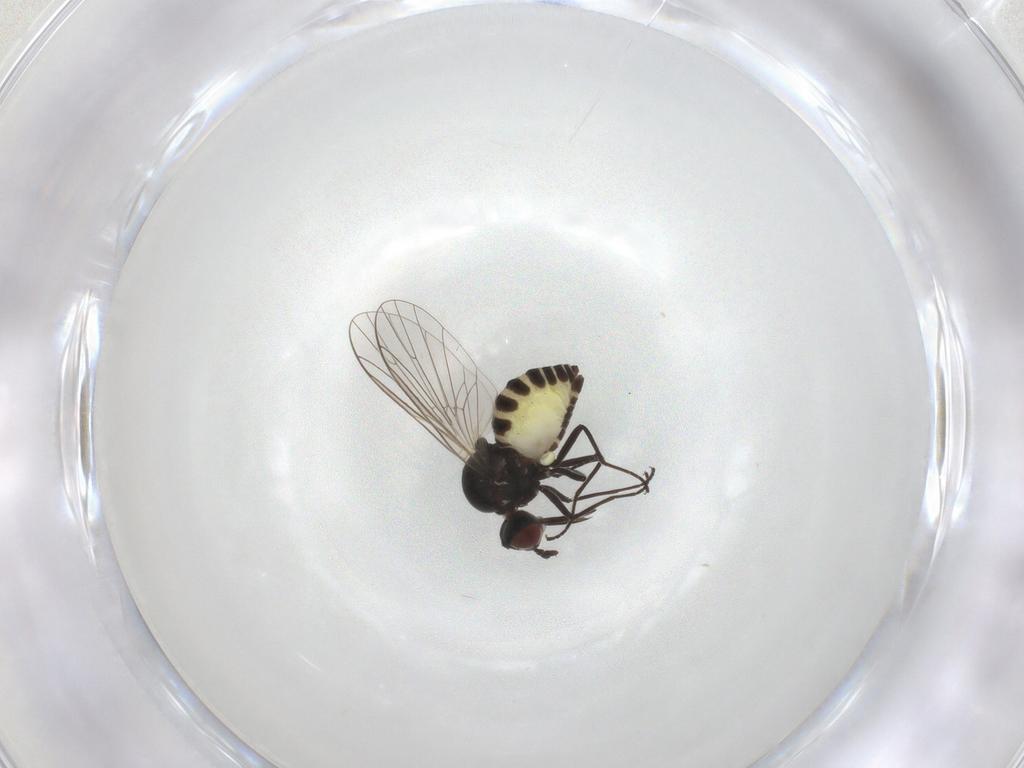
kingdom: Animalia
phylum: Arthropoda
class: Insecta
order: Diptera
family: Bombyliidae
